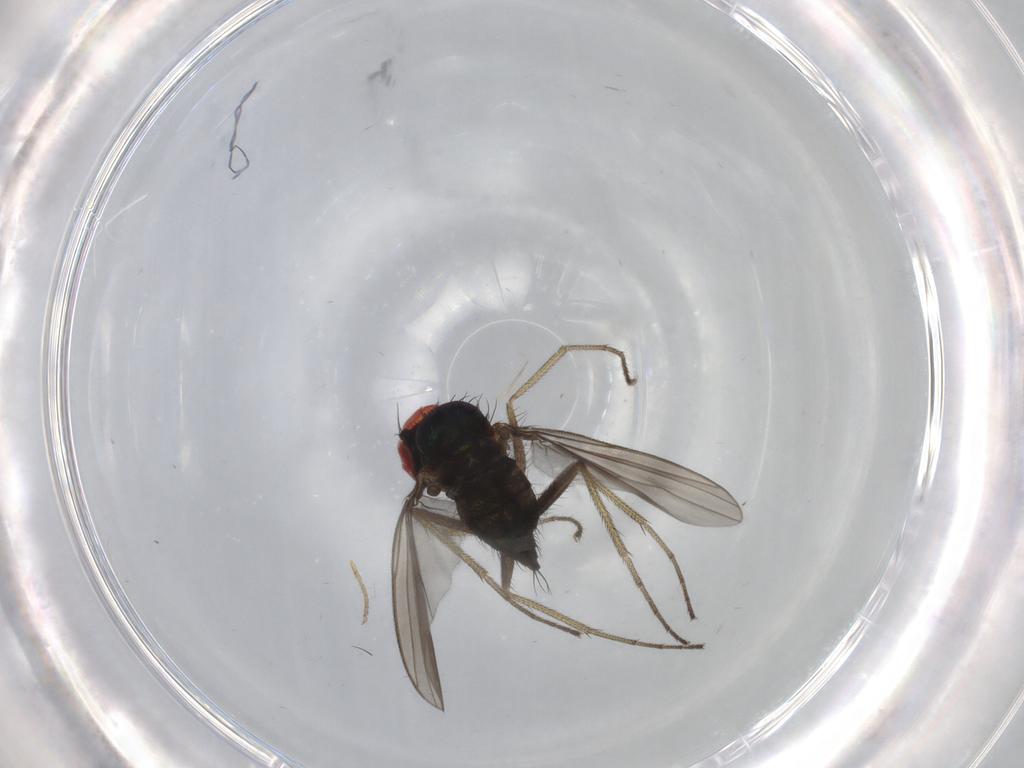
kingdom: Animalia
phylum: Arthropoda
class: Insecta
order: Diptera
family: Dolichopodidae
